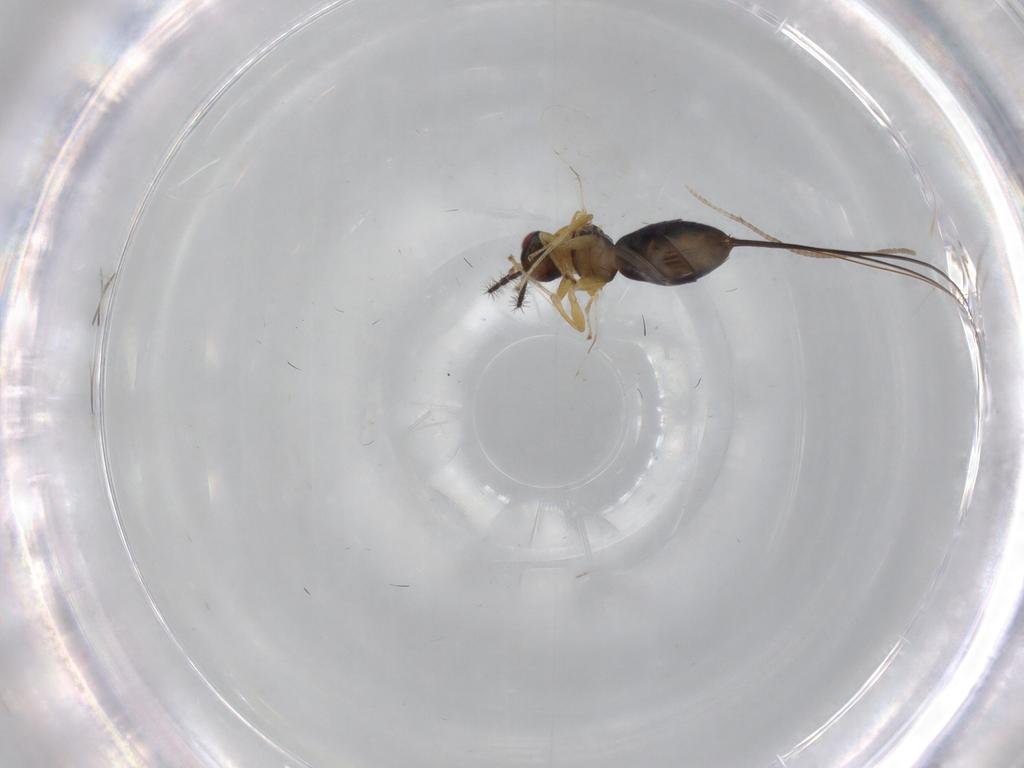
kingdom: Animalia
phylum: Arthropoda
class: Insecta
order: Lepidoptera
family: Gracillariidae
